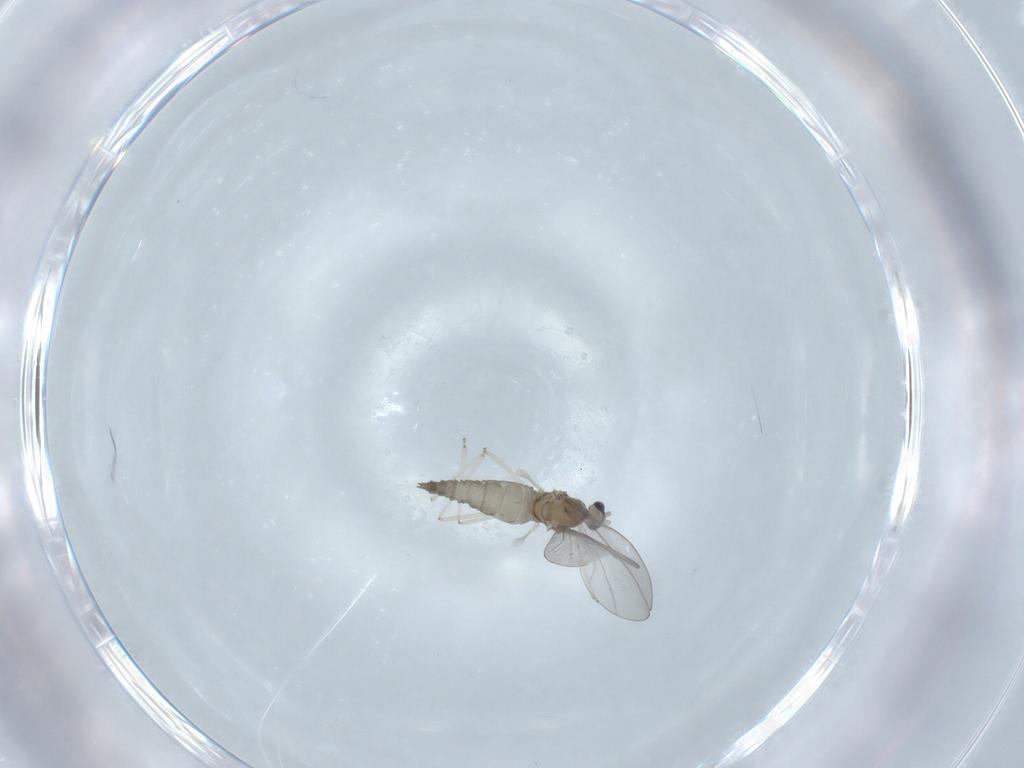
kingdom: Animalia
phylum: Arthropoda
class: Insecta
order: Diptera
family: Cecidomyiidae
